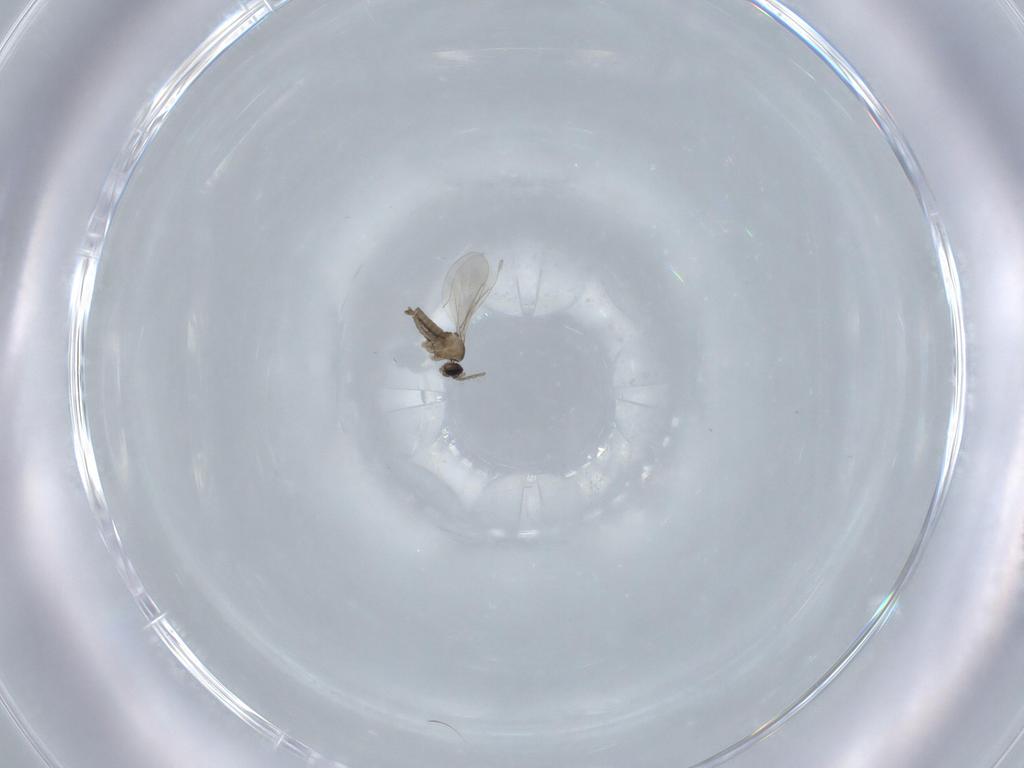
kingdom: Animalia
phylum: Arthropoda
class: Insecta
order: Diptera
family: Cecidomyiidae
